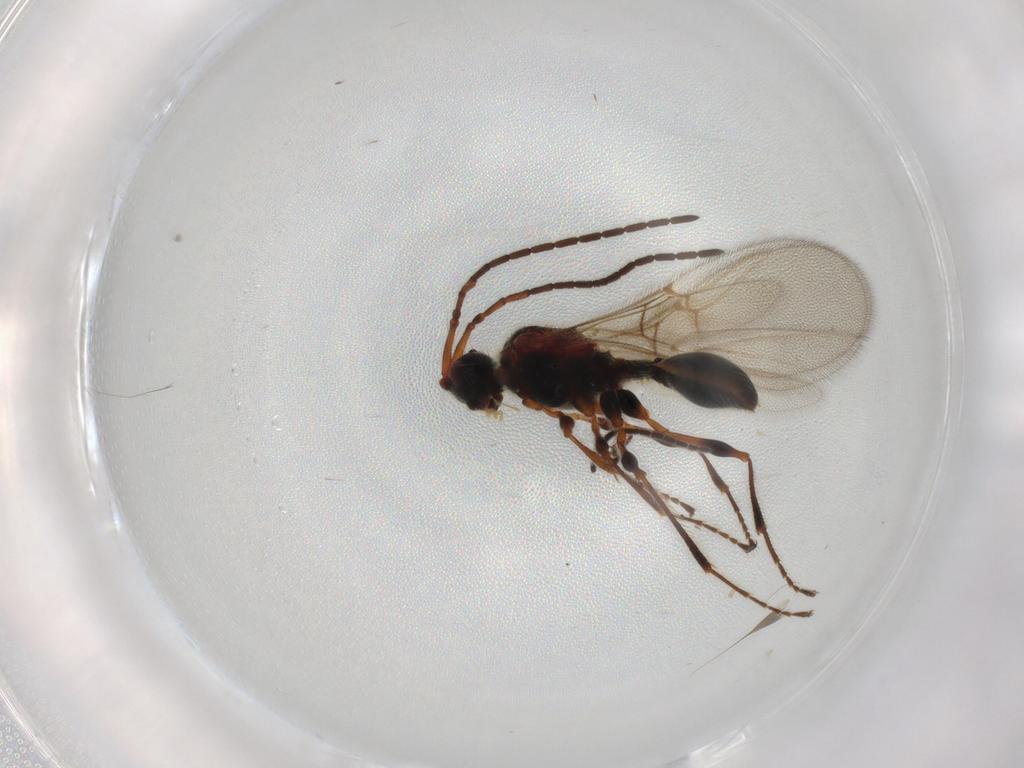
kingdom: Animalia
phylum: Arthropoda
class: Insecta
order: Hymenoptera
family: Diapriidae
